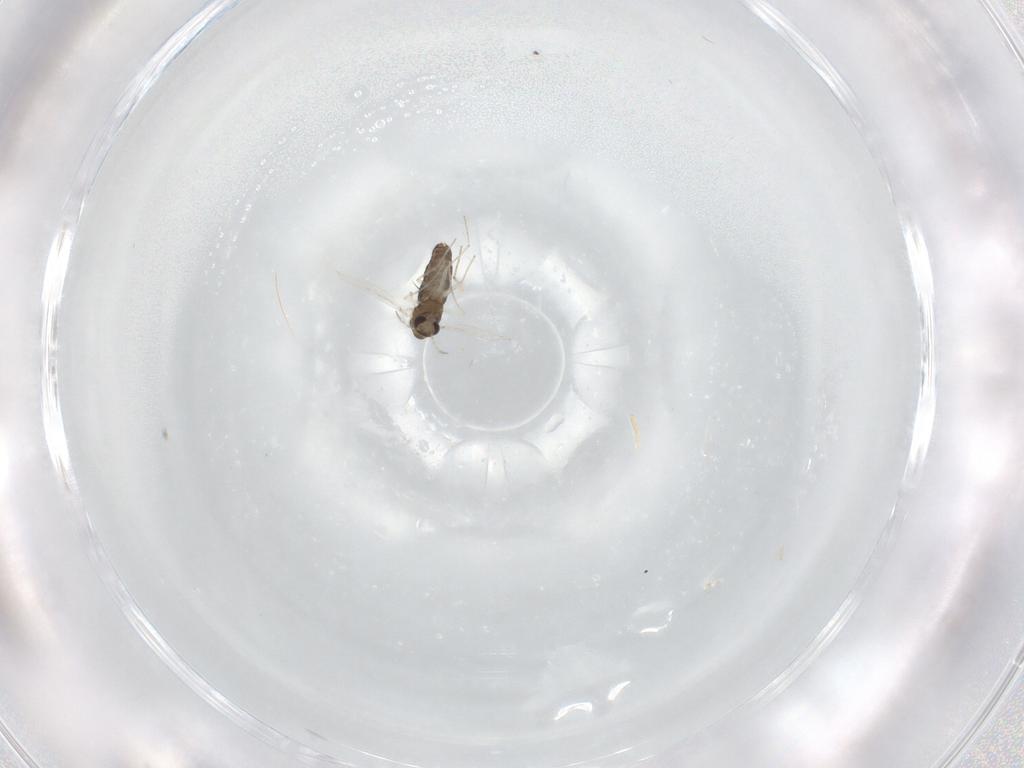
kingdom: Animalia
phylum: Arthropoda
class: Insecta
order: Diptera
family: Chironomidae
